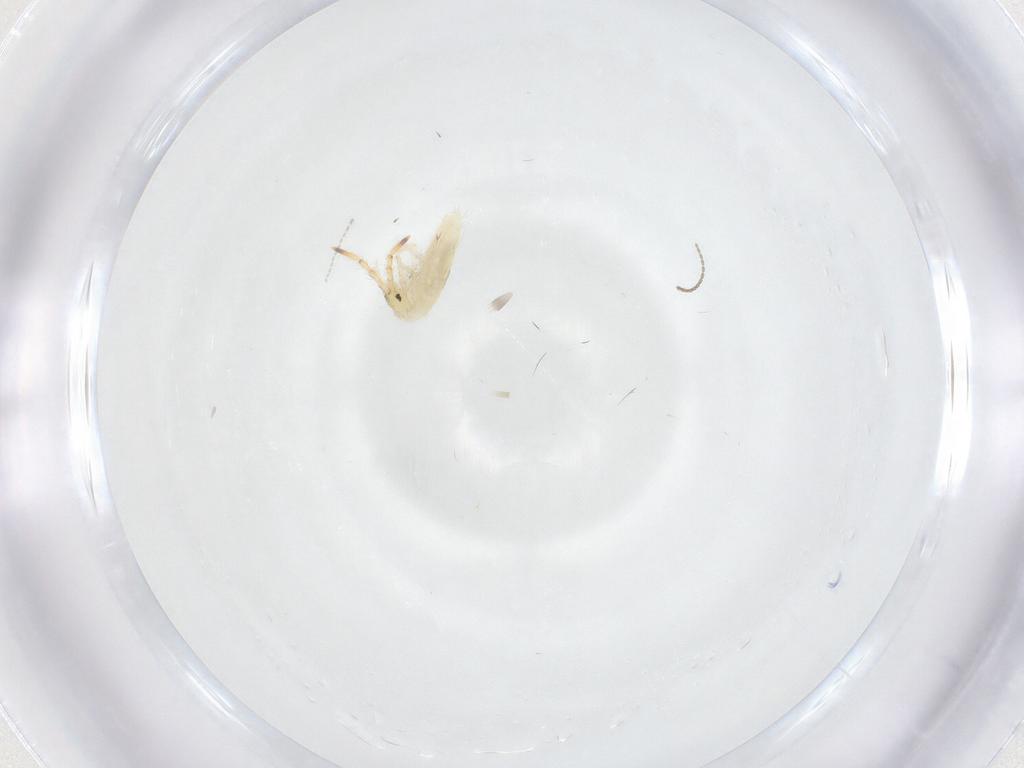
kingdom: Animalia
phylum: Arthropoda
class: Collembola
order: Entomobryomorpha
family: Entomobryidae
